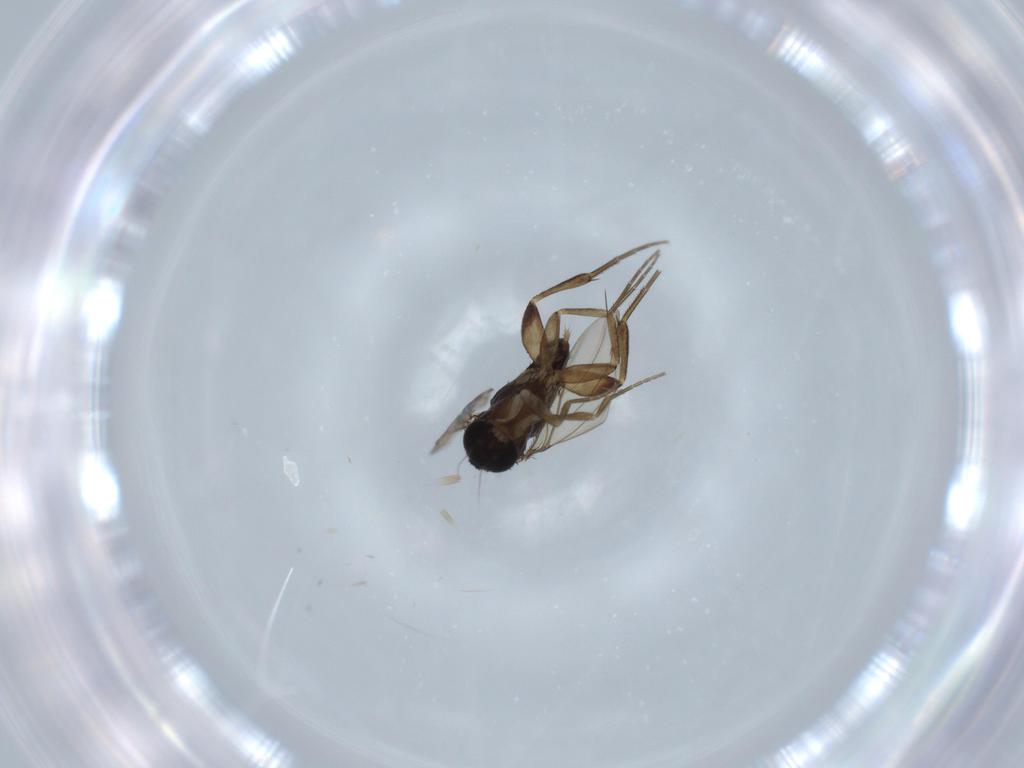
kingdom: Animalia
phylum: Arthropoda
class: Insecta
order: Diptera
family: Phoridae
